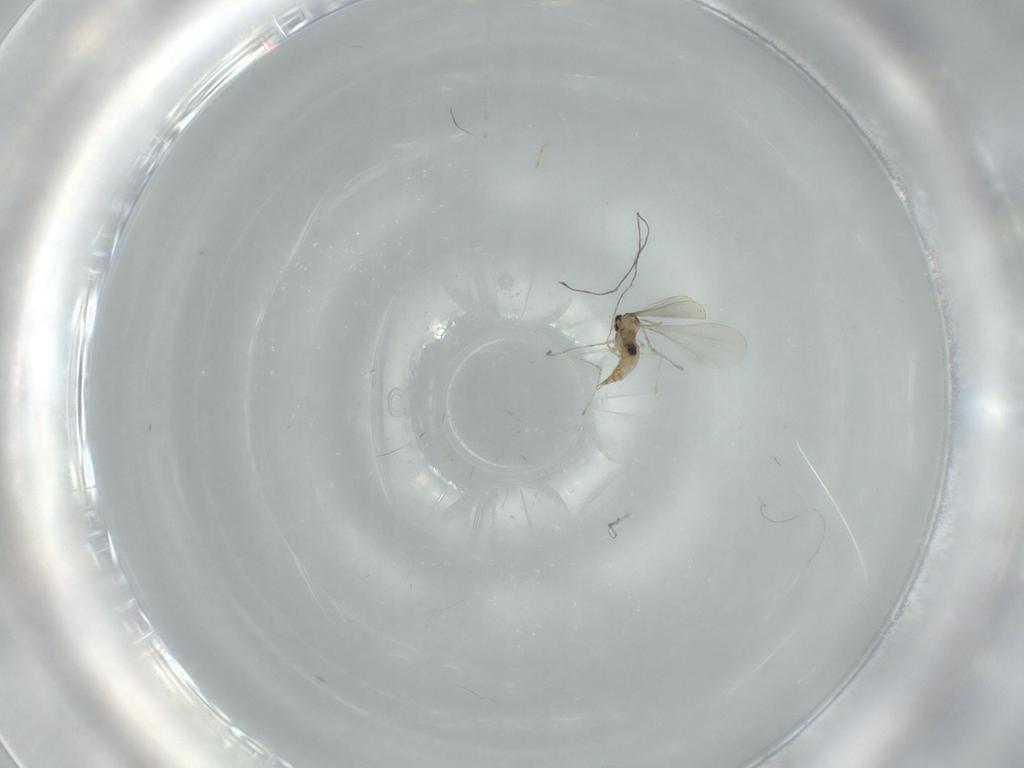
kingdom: Animalia
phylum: Arthropoda
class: Insecta
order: Diptera
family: Cecidomyiidae
